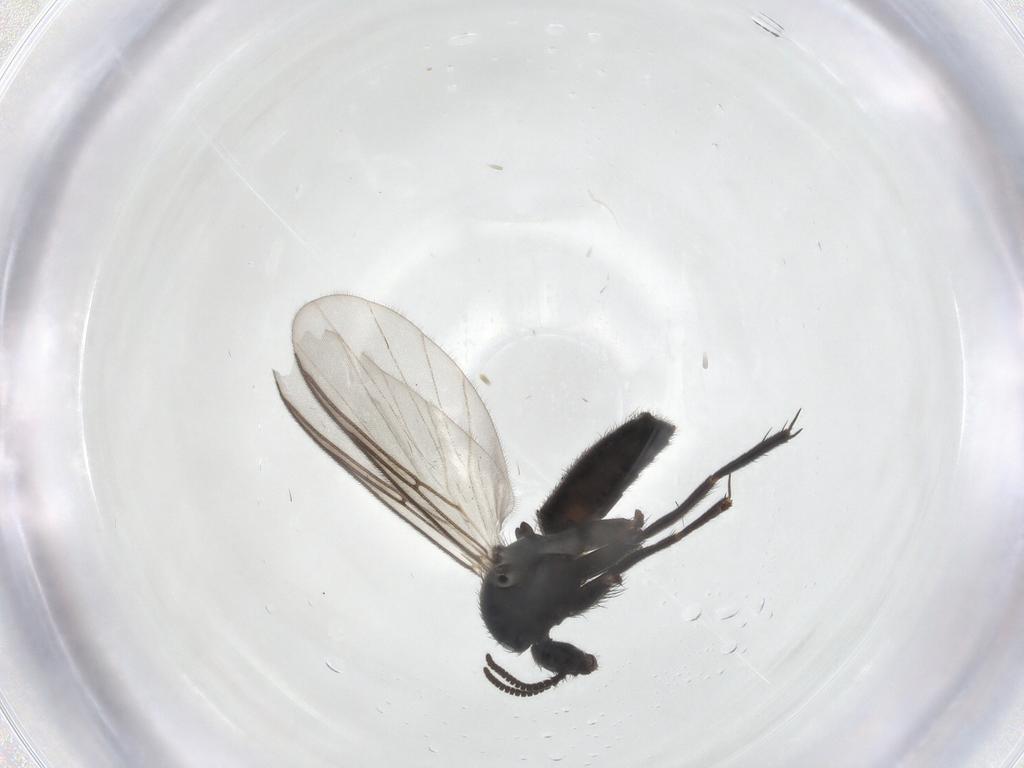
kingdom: Animalia
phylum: Arthropoda
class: Insecta
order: Diptera
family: Mycetophilidae
